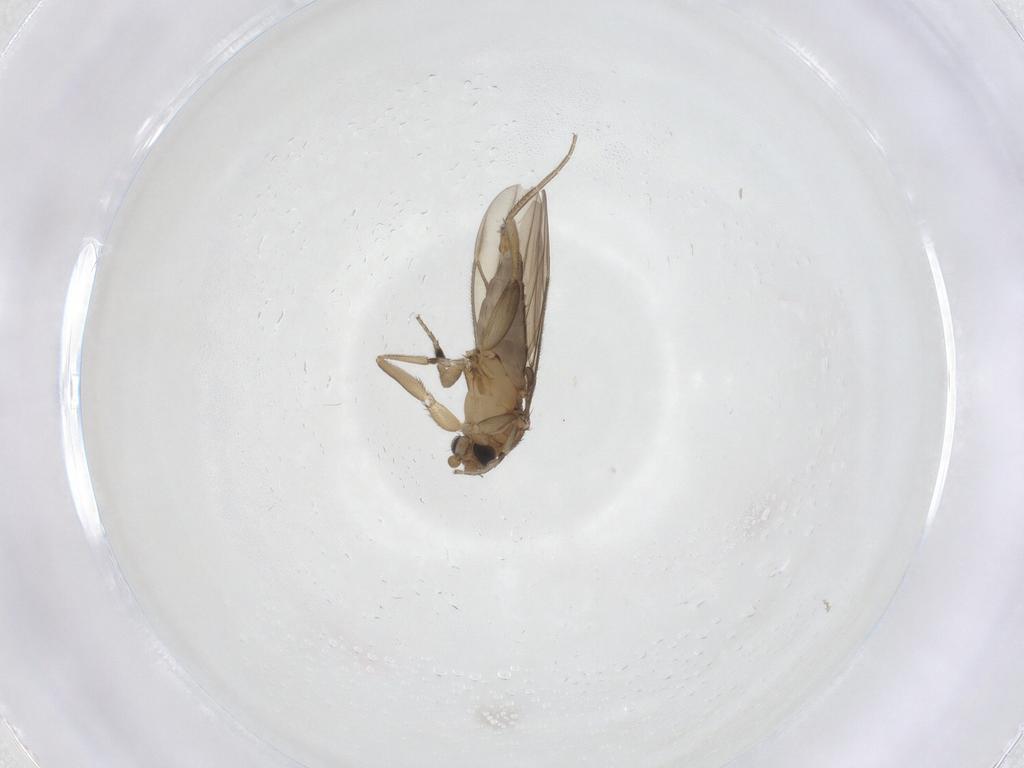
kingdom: Animalia
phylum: Arthropoda
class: Insecta
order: Diptera
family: Phoridae
